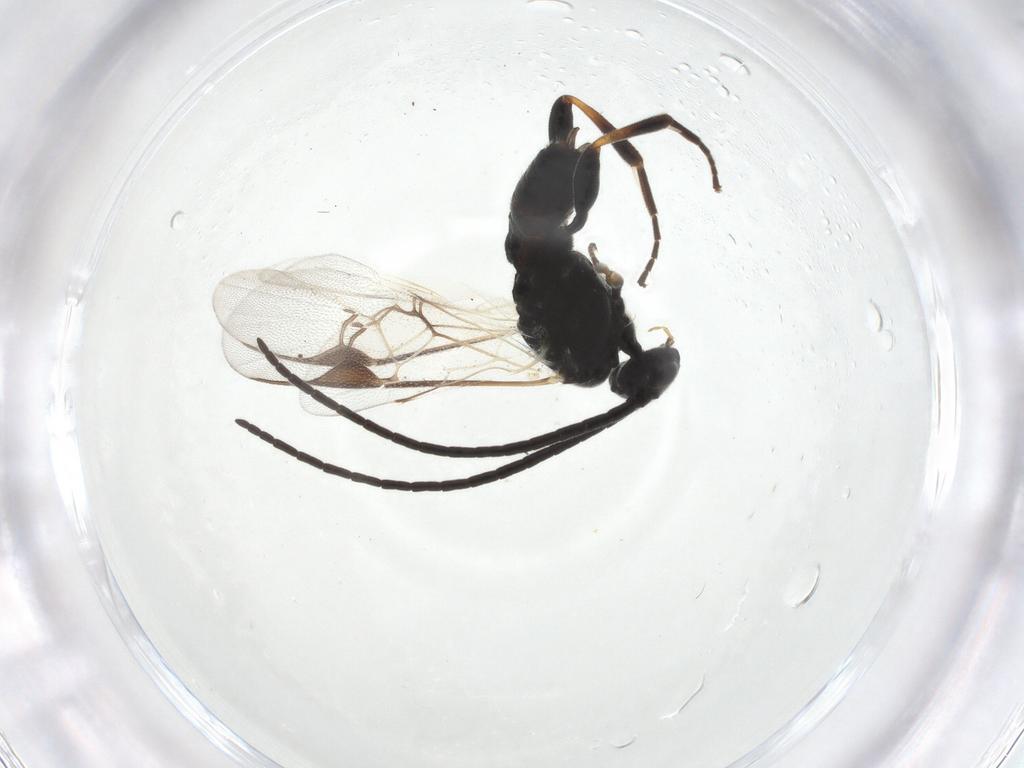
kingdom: Animalia
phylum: Arthropoda
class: Insecta
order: Hymenoptera
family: Braconidae
